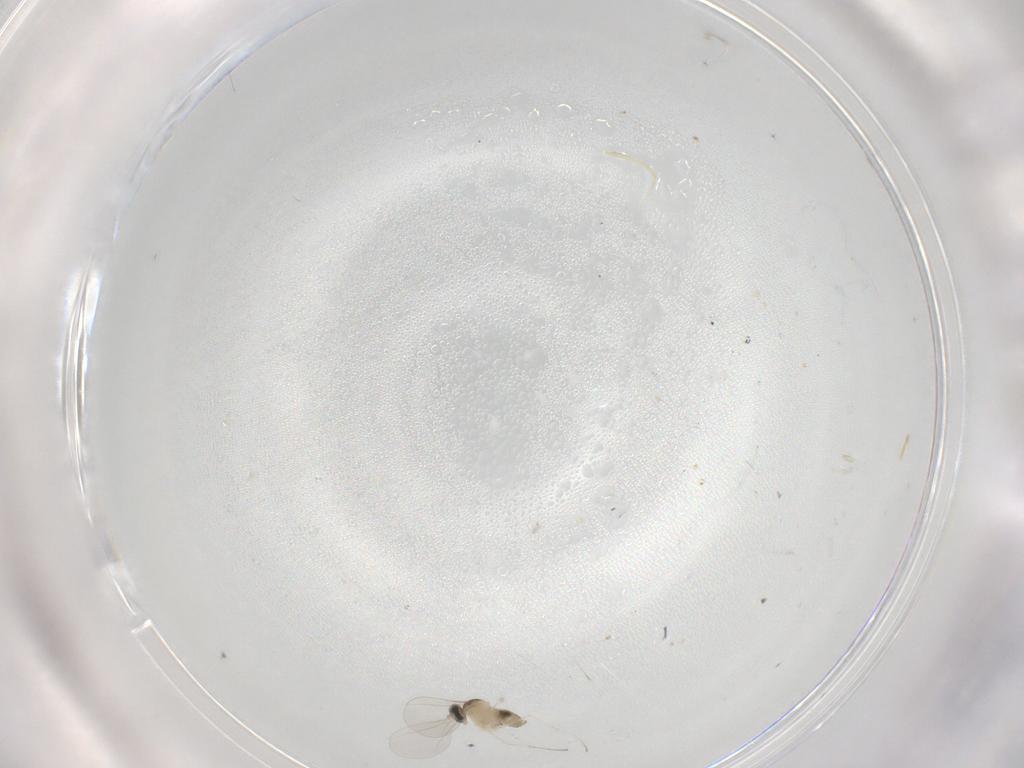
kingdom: Animalia
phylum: Arthropoda
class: Insecta
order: Diptera
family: Cecidomyiidae
